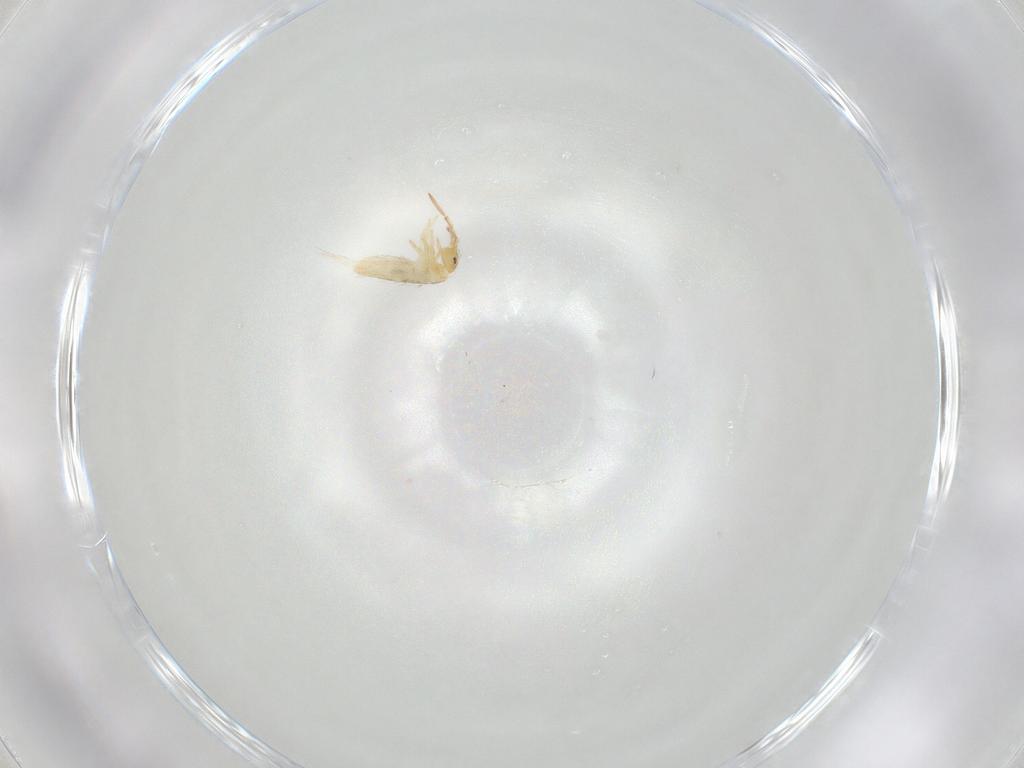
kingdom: Animalia
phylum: Arthropoda
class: Collembola
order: Entomobryomorpha
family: Entomobryidae
